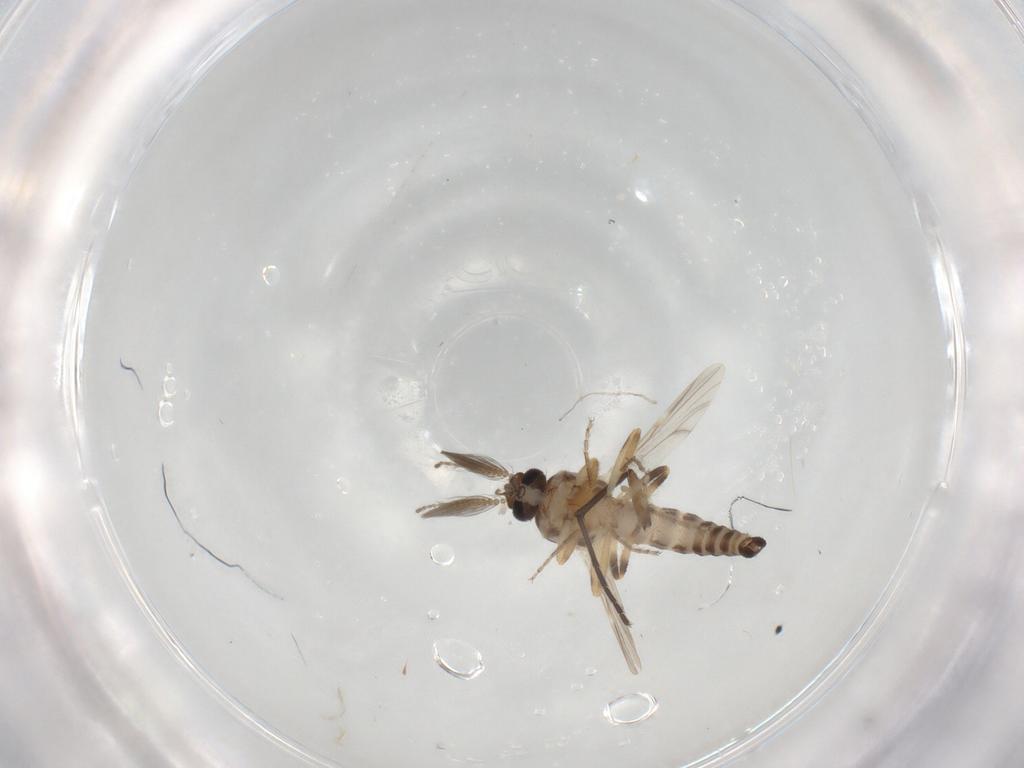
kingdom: Animalia
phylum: Arthropoda
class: Insecta
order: Diptera
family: Ceratopogonidae
